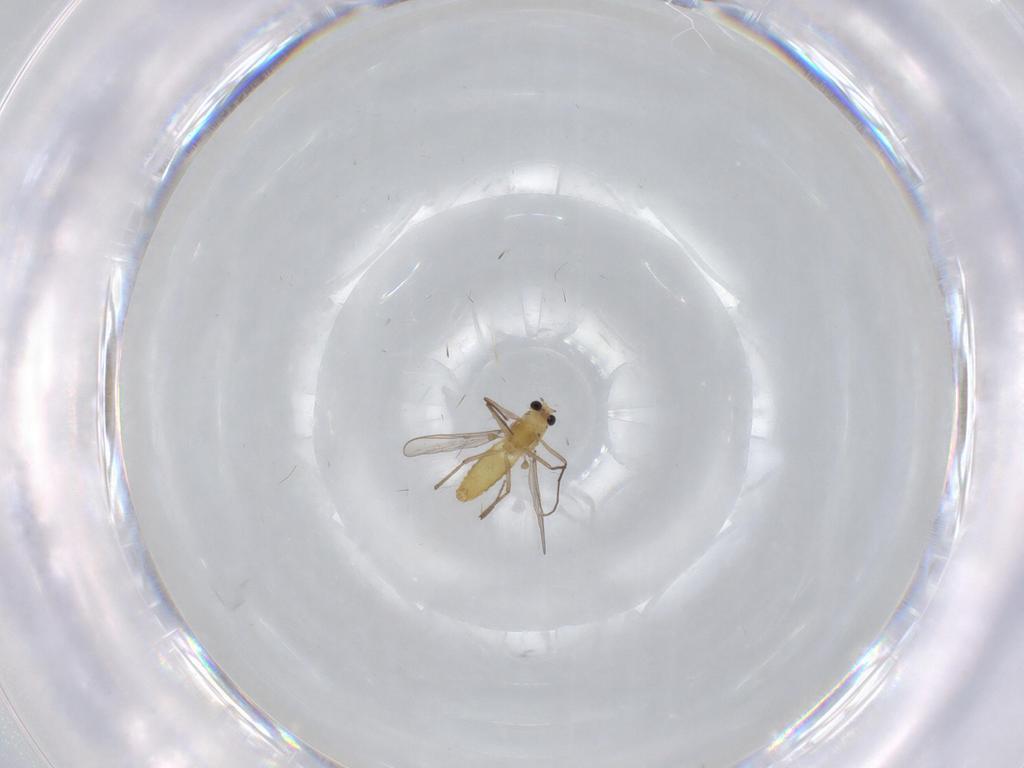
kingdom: Animalia
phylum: Arthropoda
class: Insecta
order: Diptera
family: Anthomyiidae
